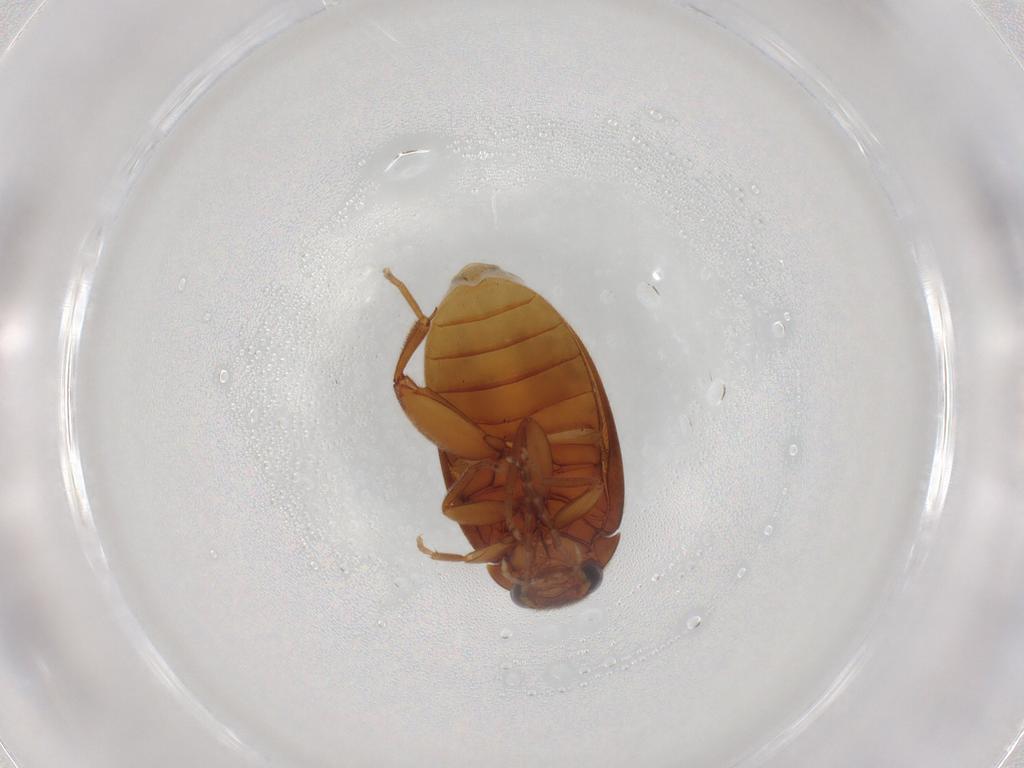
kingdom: Animalia
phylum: Arthropoda
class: Insecta
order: Coleoptera
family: Scirtidae
